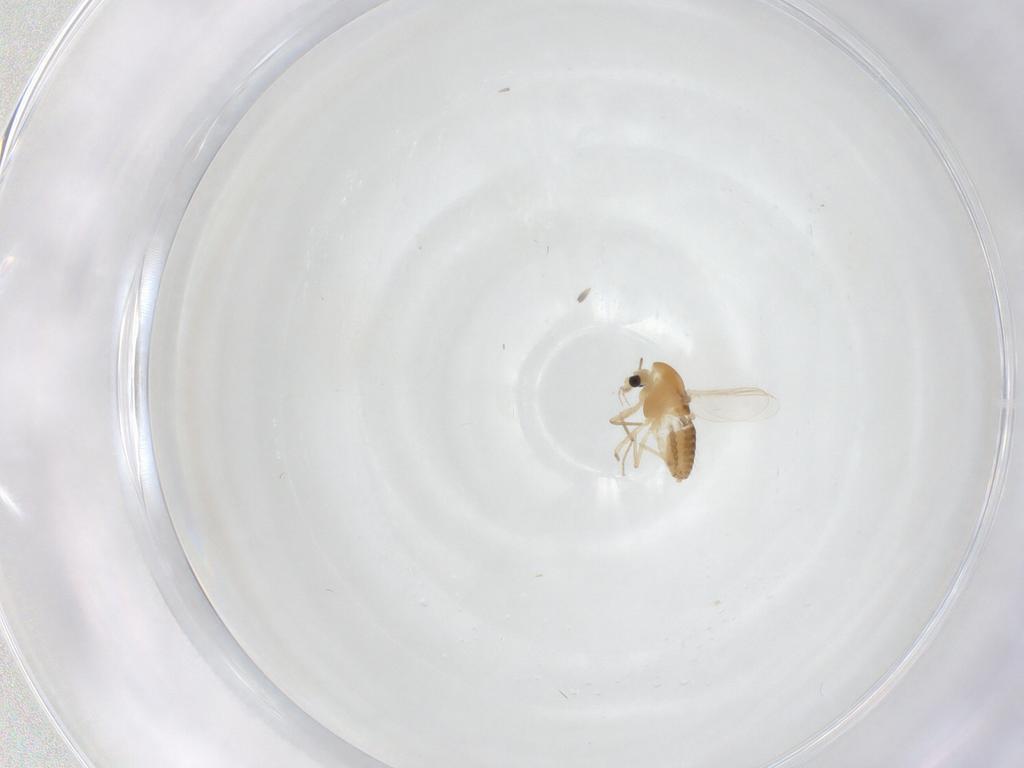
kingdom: Animalia
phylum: Arthropoda
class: Insecta
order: Diptera
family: Chironomidae
